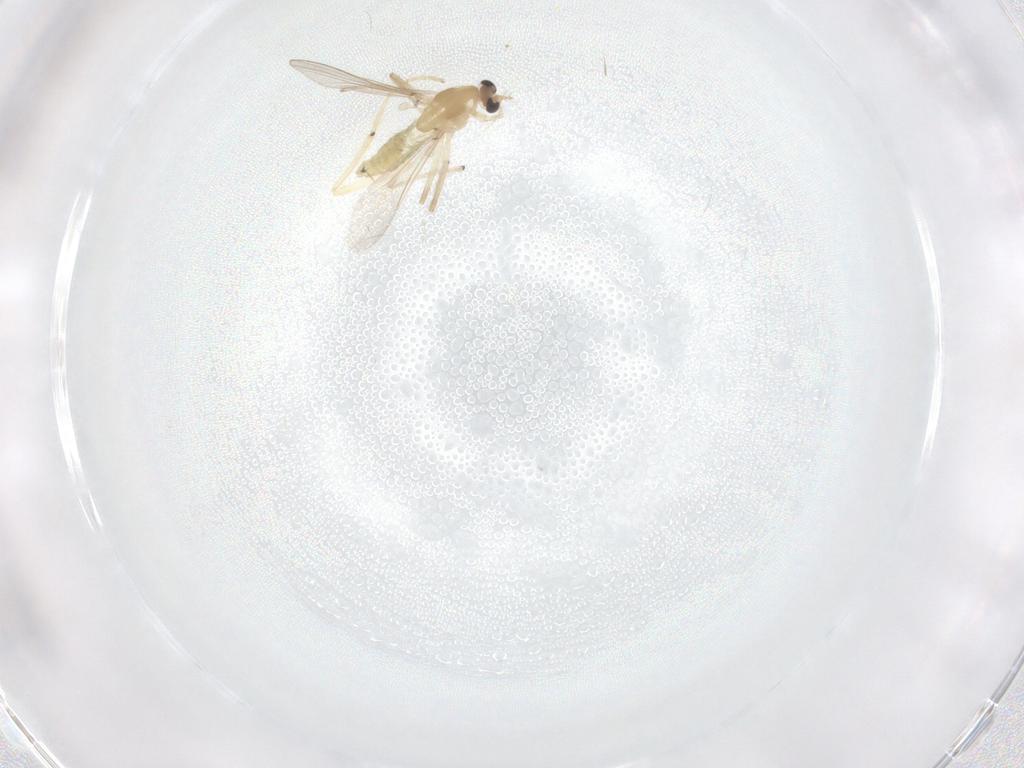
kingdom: Animalia
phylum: Arthropoda
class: Insecta
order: Diptera
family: Chironomidae
